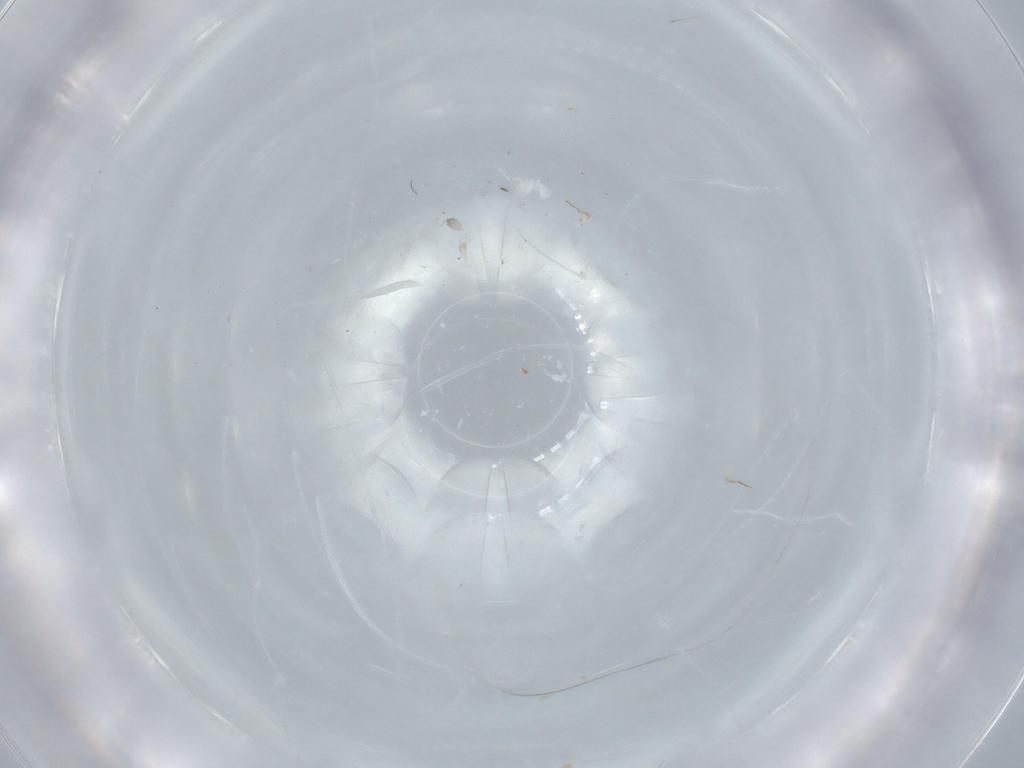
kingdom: Animalia
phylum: Arthropoda
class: Insecta
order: Hymenoptera
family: Aphelinidae
